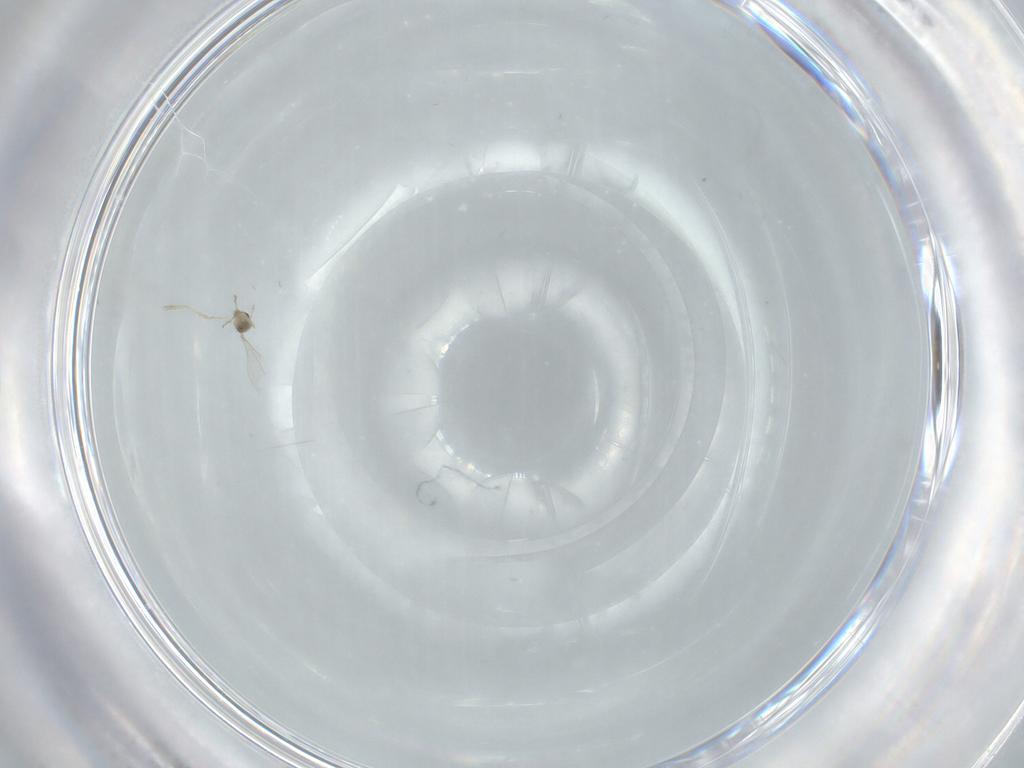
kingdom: Animalia
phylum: Arthropoda
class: Insecta
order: Diptera
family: Cecidomyiidae
